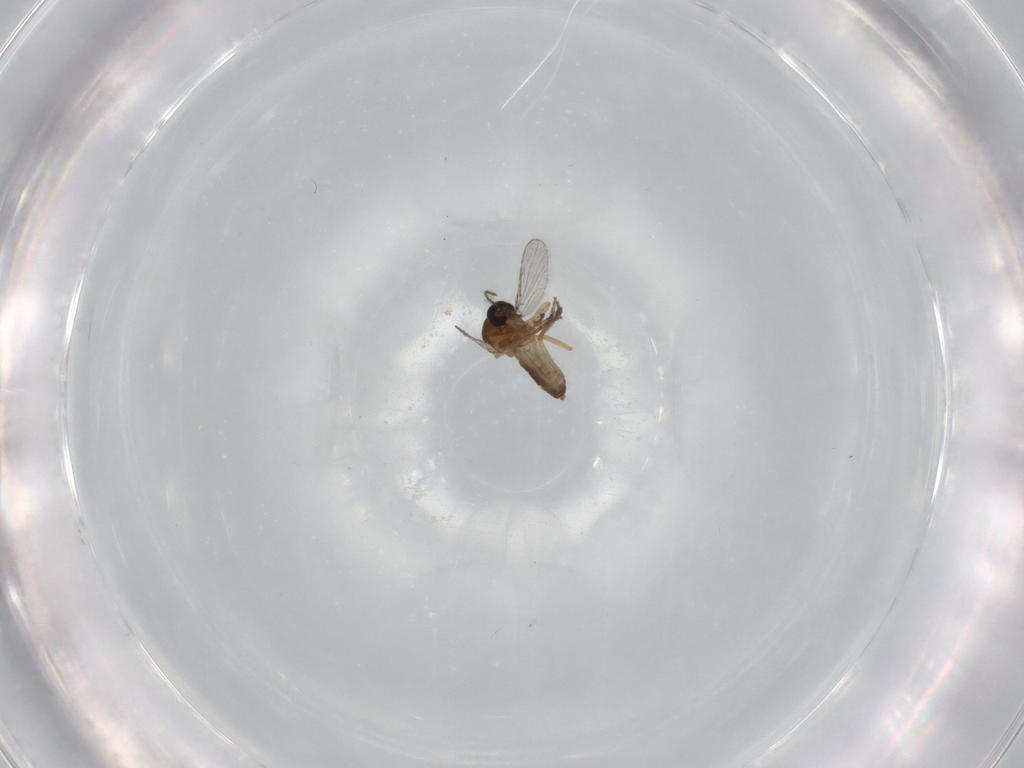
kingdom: Animalia
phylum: Arthropoda
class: Insecta
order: Diptera
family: Ceratopogonidae
